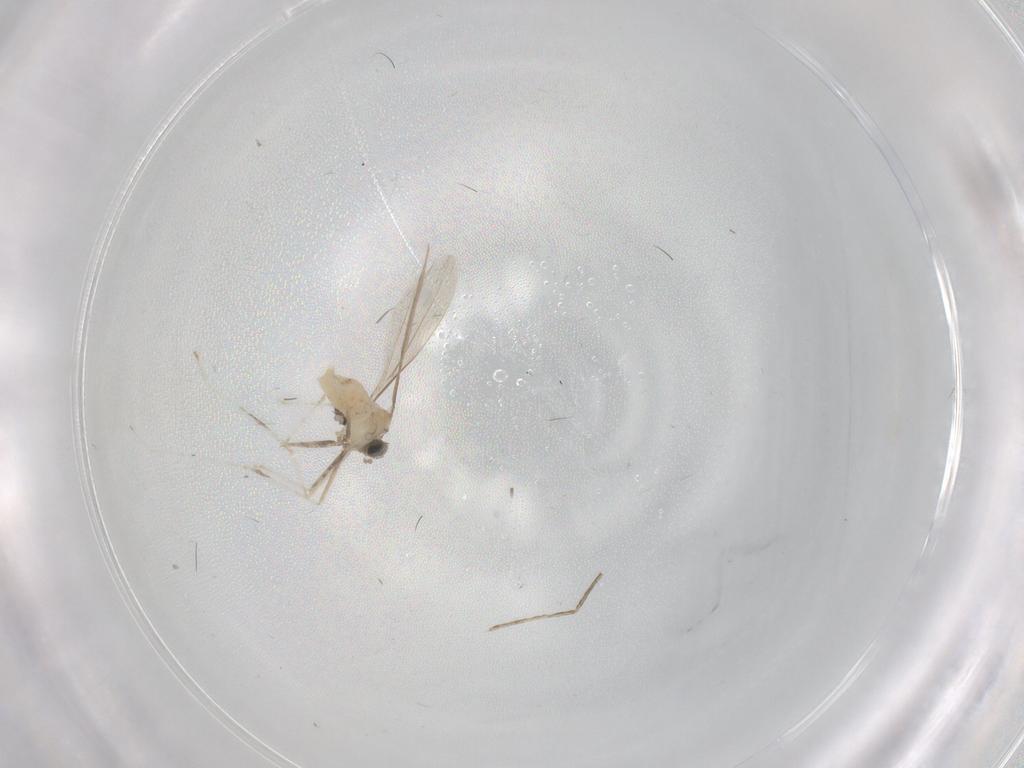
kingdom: Animalia
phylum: Arthropoda
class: Insecta
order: Diptera
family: Cecidomyiidae
